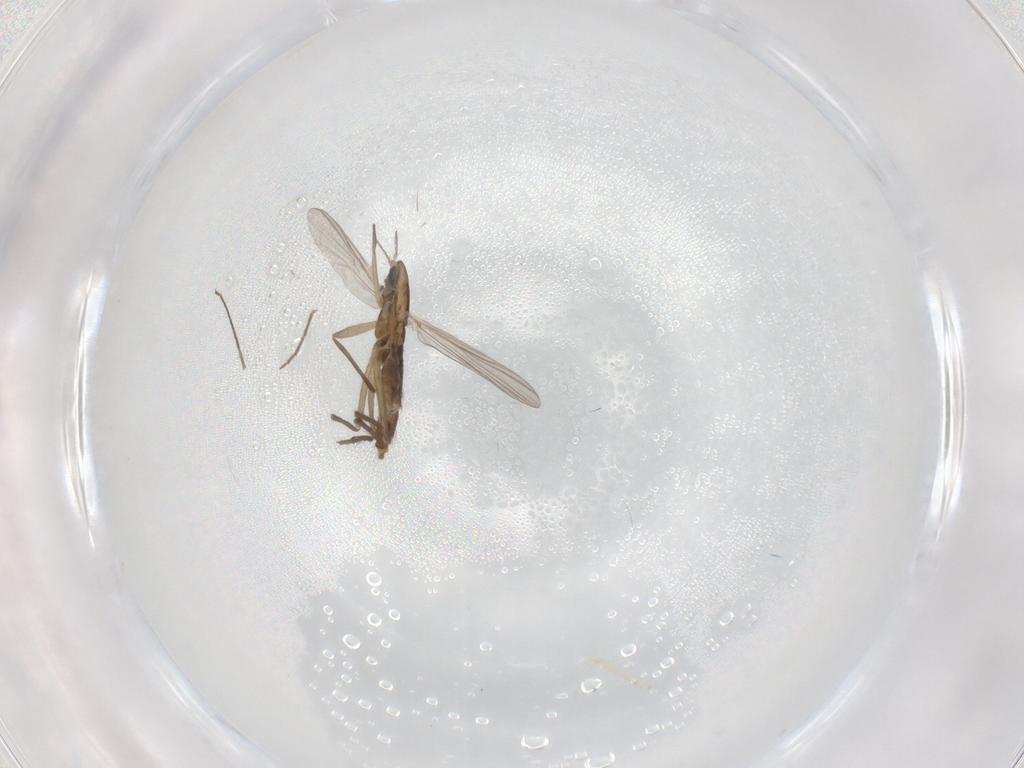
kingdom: Animalia
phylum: Arthropoda
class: Insecta
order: Diptera
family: Chironomidae
